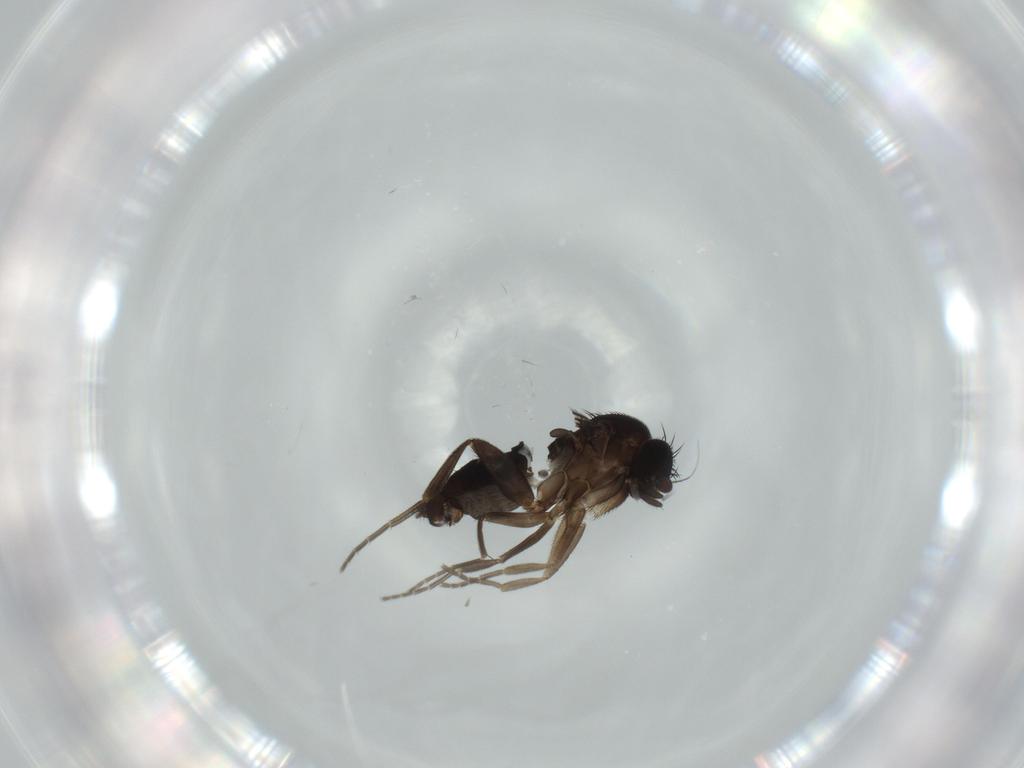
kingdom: Animalia
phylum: Arthropoda
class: Insecta
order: Diptera
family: Phoridae
